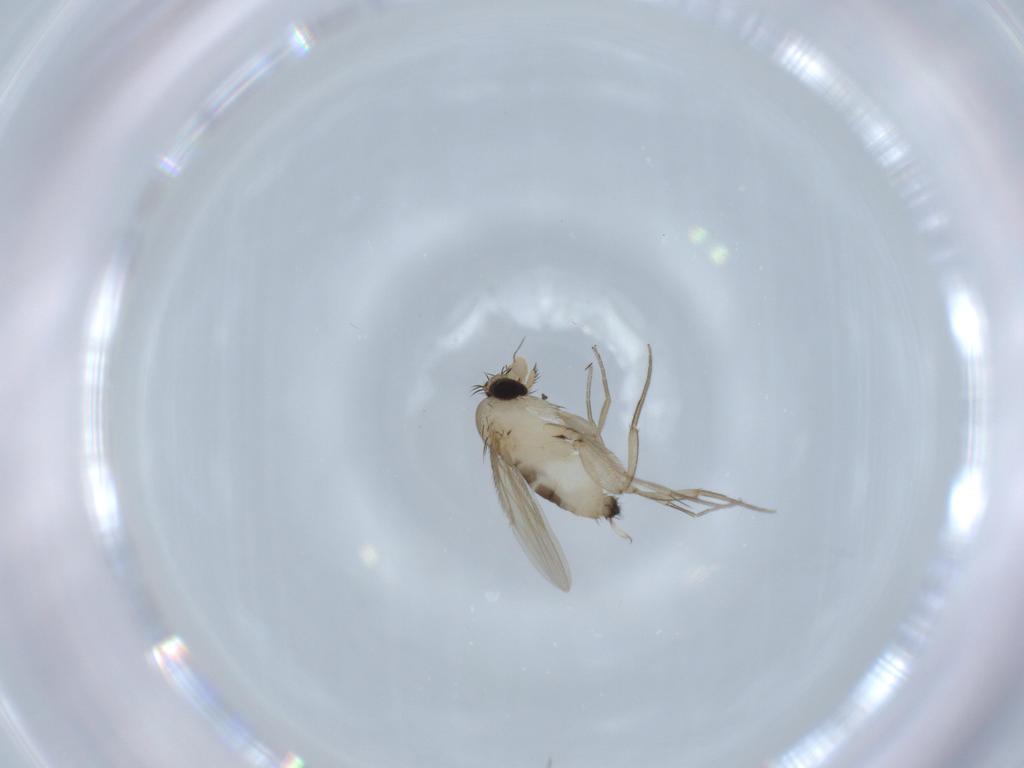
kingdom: Animalia
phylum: Arthropoda
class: Insecta
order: Diptera
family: Phoridae
